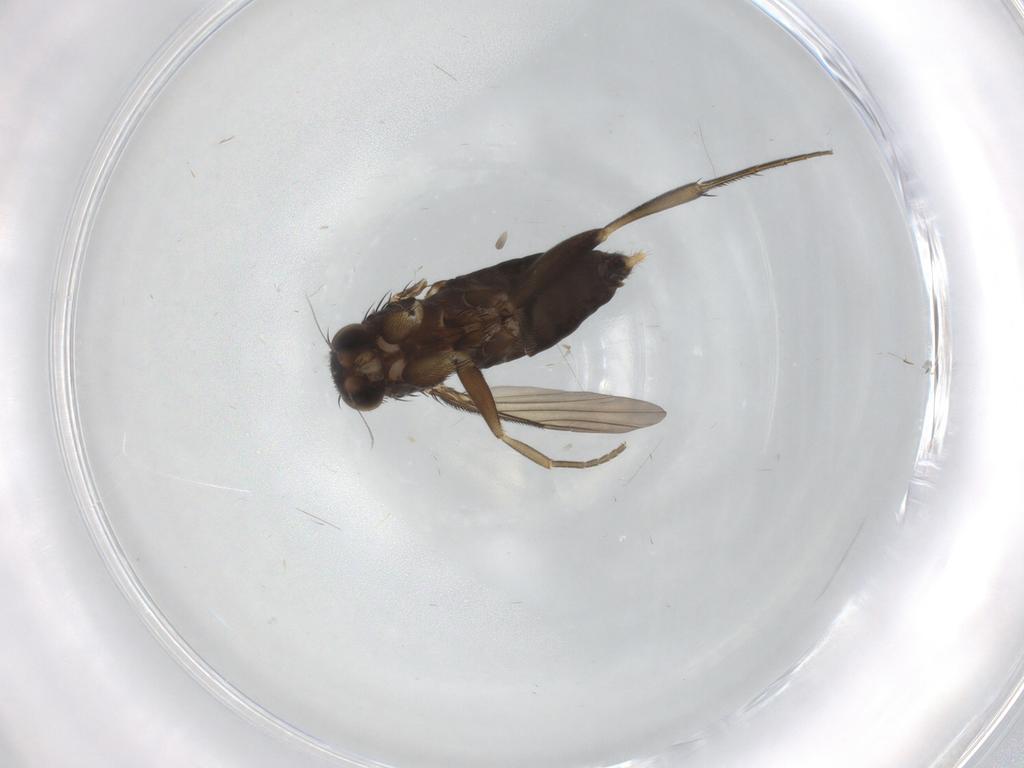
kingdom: Animalia
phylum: Arthropoda
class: Insecta
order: Diptera
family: Phoridae
